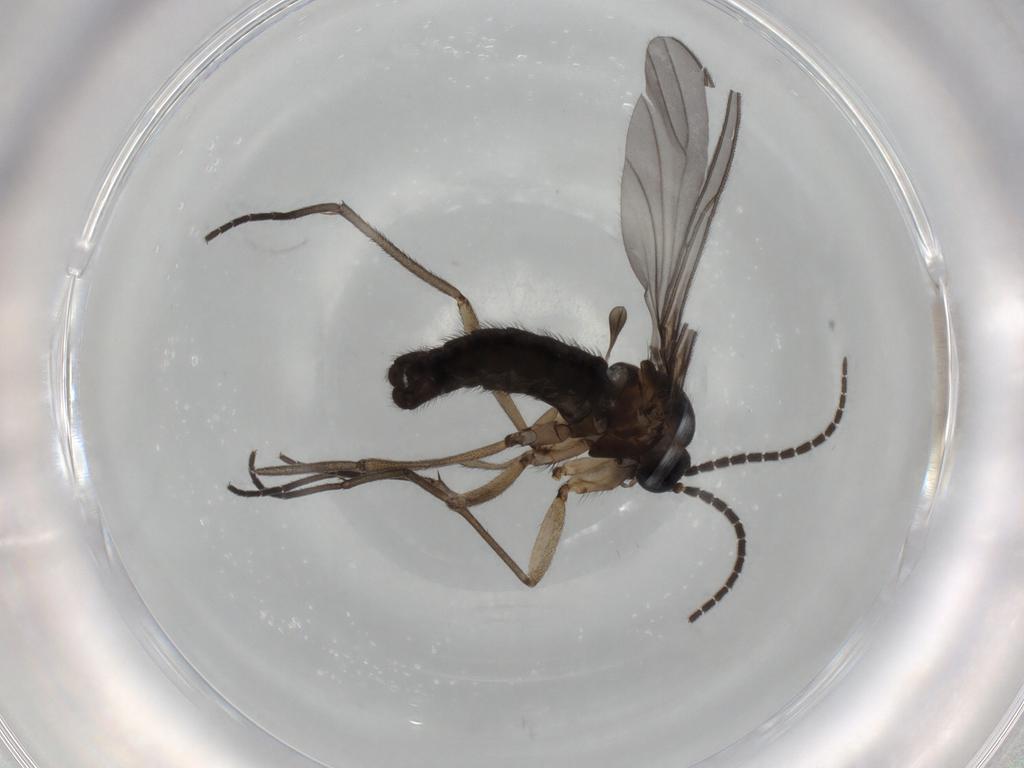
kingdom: Animalia
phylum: Arthropoda
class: Insecta
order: Diptera
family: Sciaridae
